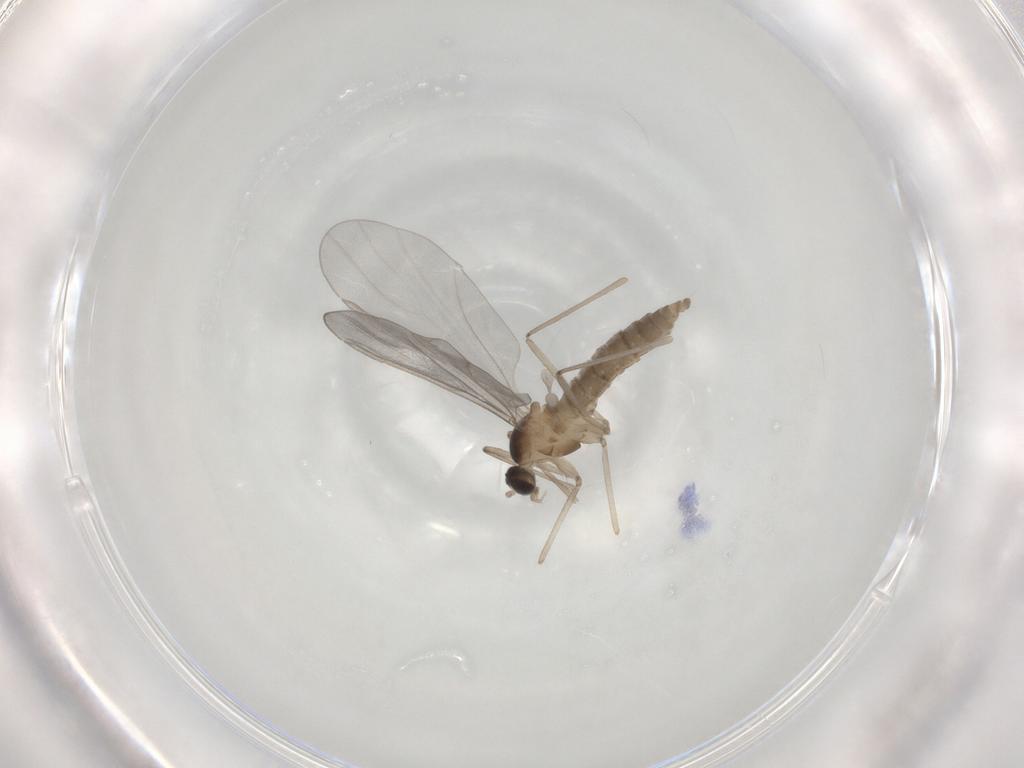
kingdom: Animalia
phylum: Arthropoda
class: Insecta
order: Diptera
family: Cecidomyiidae
